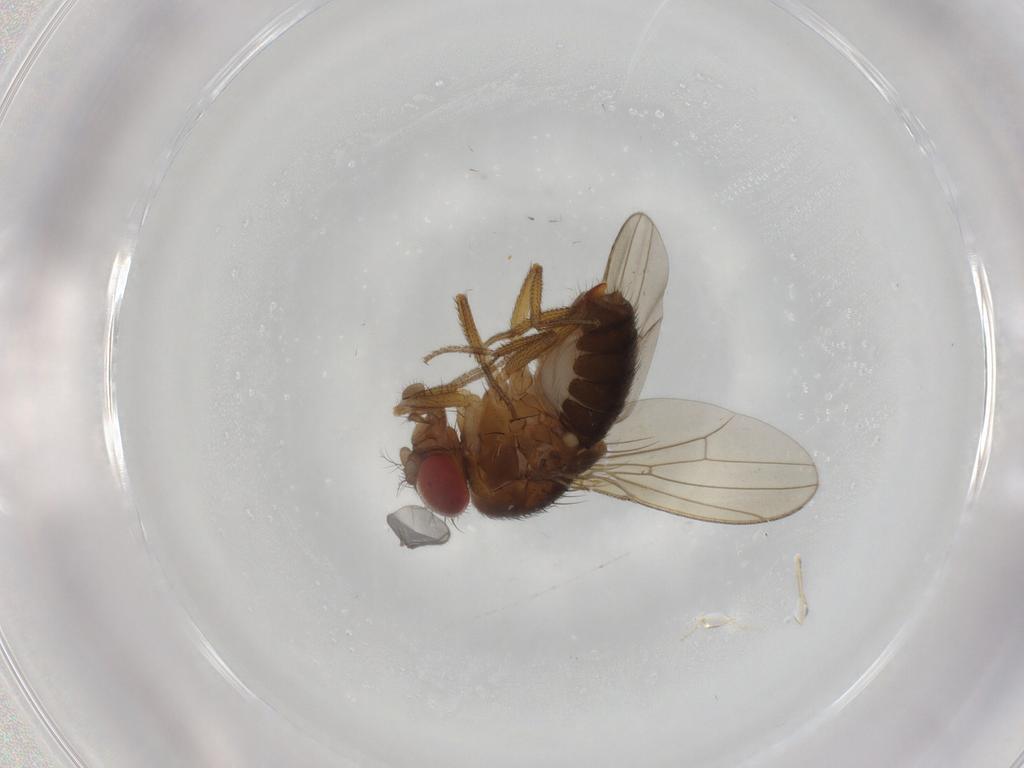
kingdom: Animalia
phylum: Arthropoda
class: Insecta
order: Diptera
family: Drosophilidae
